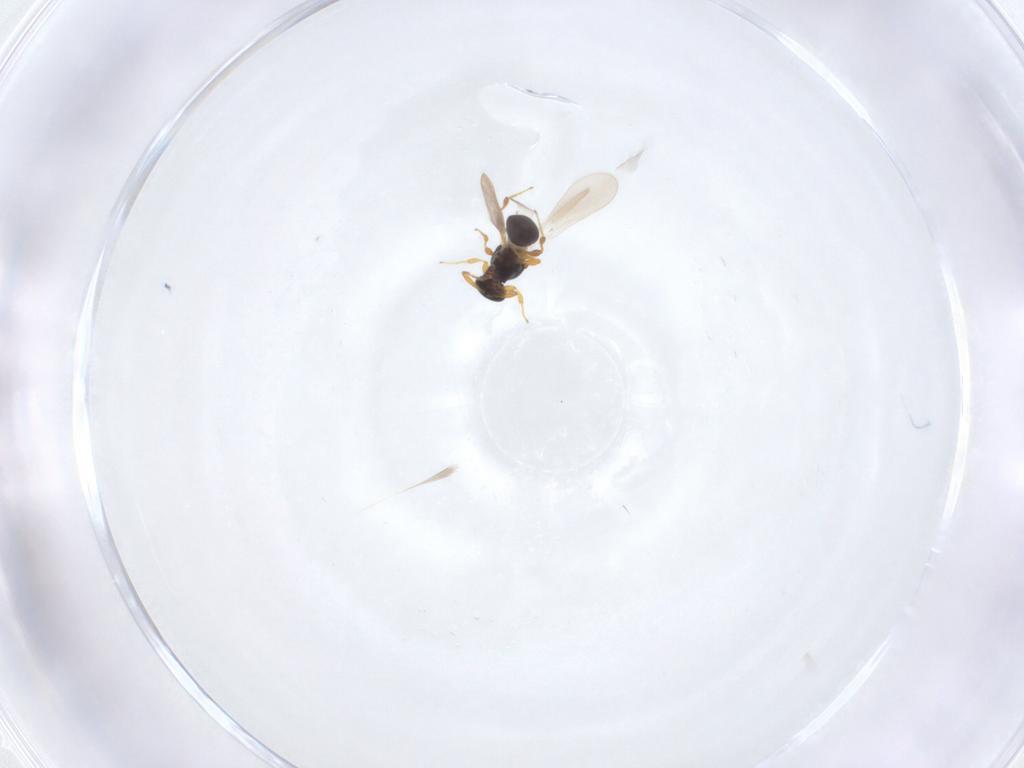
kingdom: Animalia
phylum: Arthropoda
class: Insecta
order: Diptera
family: Muscidae
